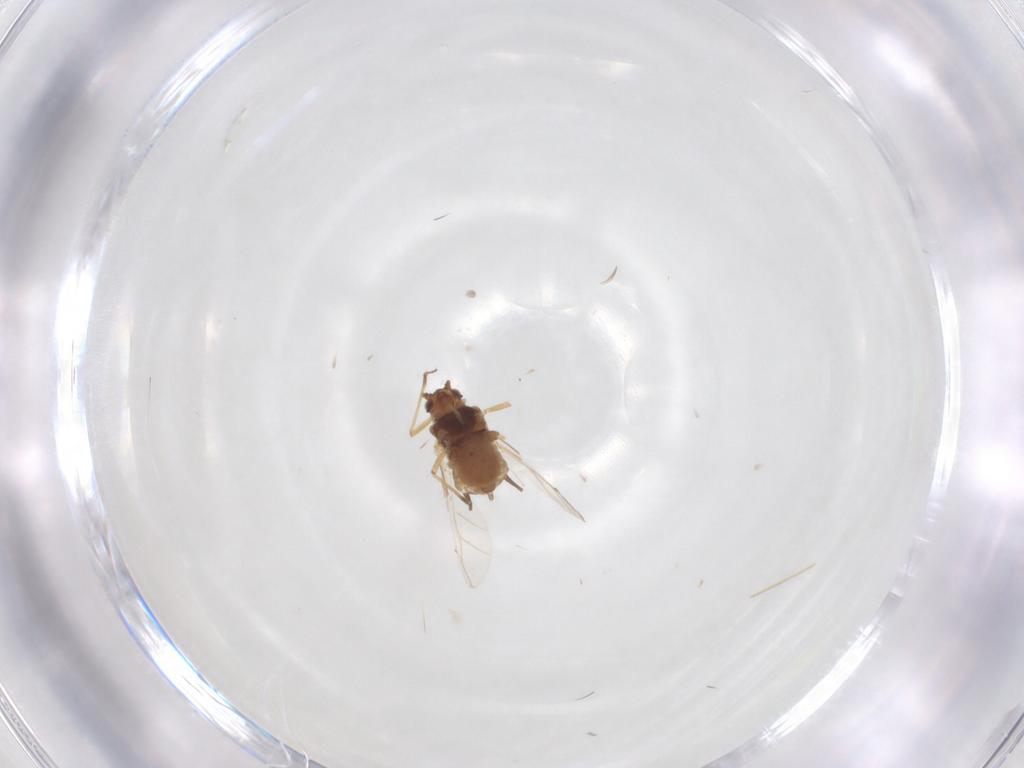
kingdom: Animalia
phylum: Arthropoda
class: Insecta
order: Hemiptera
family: Aphididae
